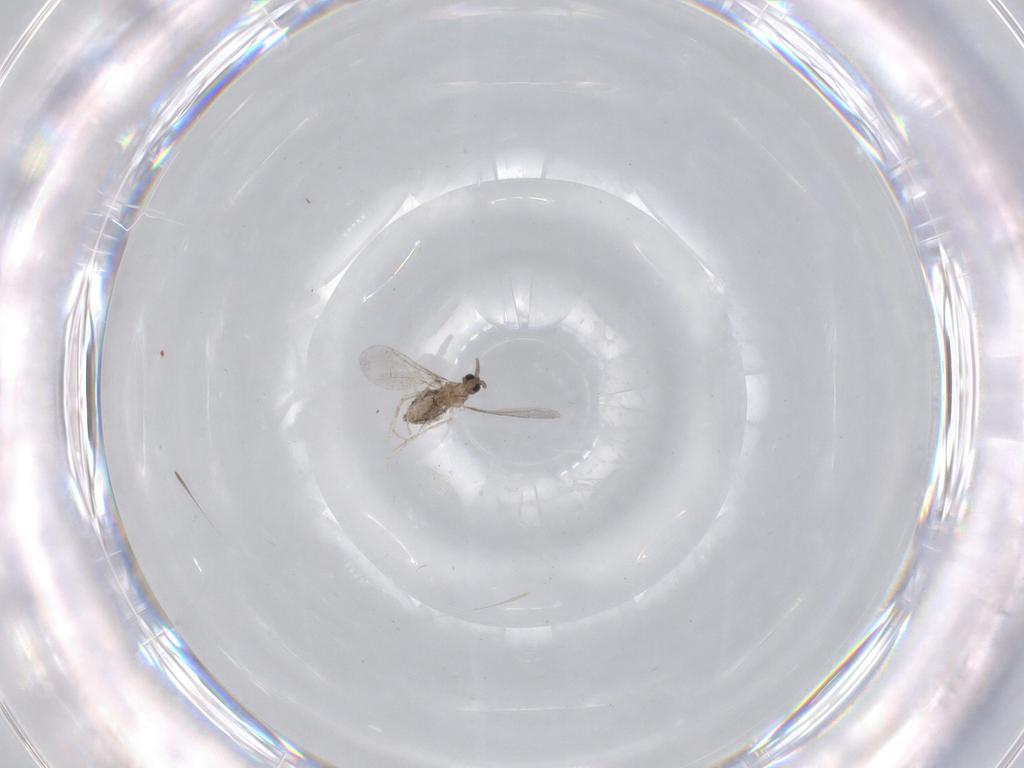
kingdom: Animalia
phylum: Arthropoda
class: Insecta
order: Diptera
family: Cecidomyiidae
